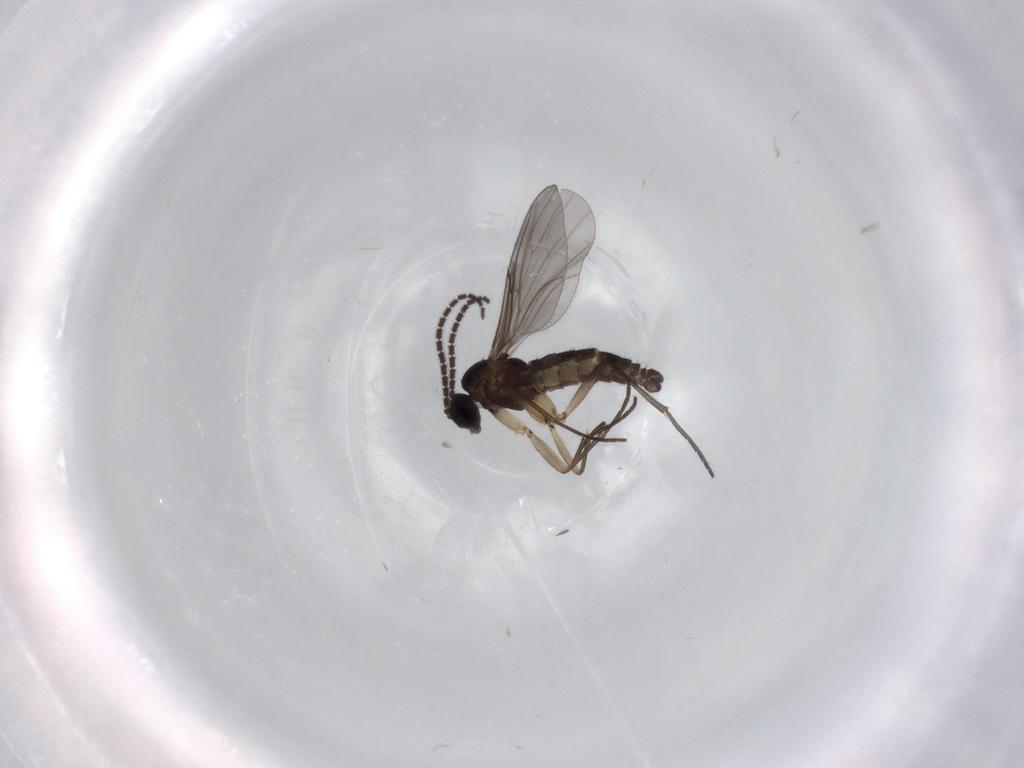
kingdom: Animalia
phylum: Arthropoda
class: Insecta
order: Diptera
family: Sciaridae
